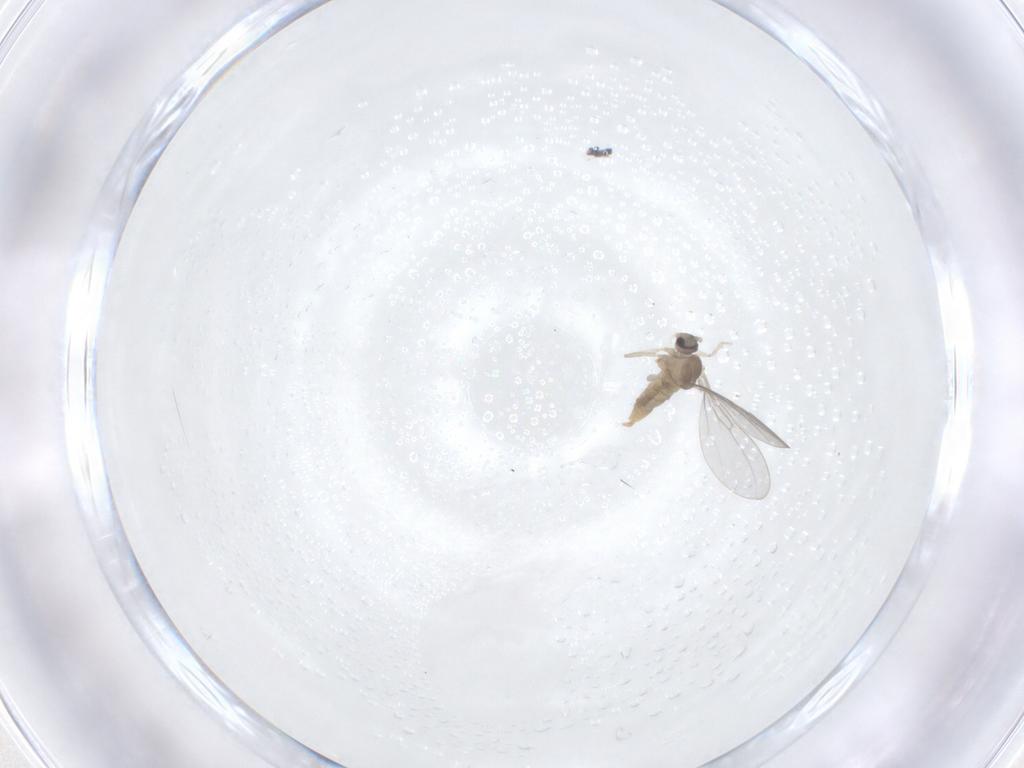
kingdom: Animalia
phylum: Arthropoda
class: Insecta
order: Diptera
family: Cecidomyiidae
